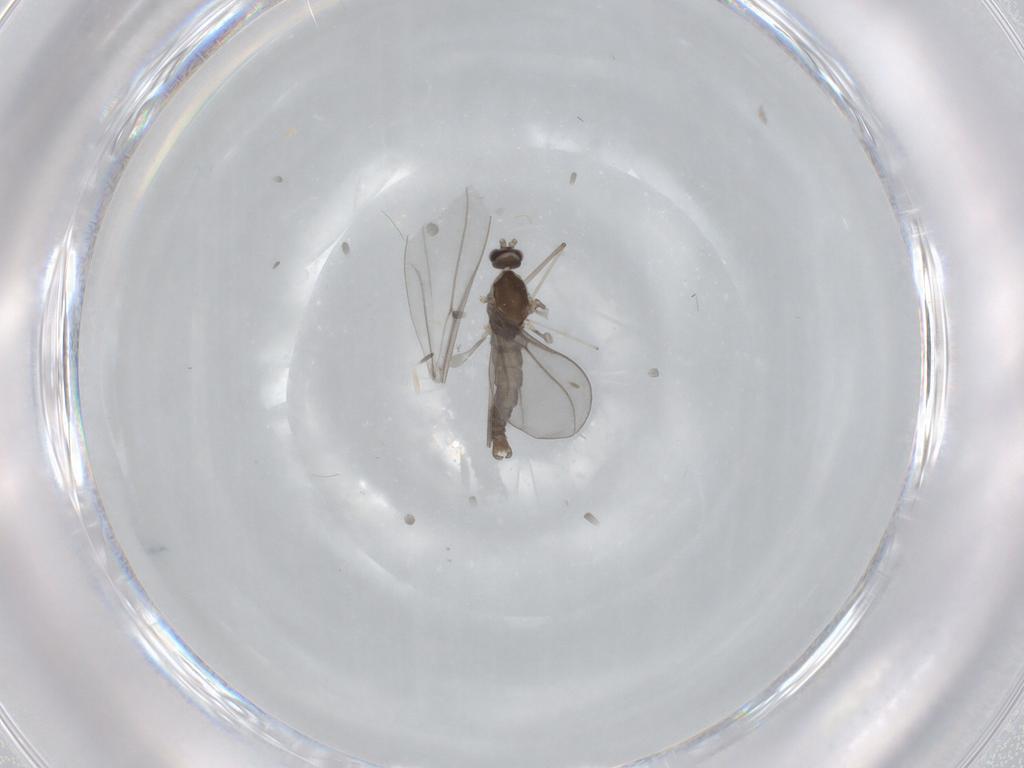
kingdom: Animalia
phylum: Arthropoda
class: Insecta
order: Diptera
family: Cecidomyiidae
